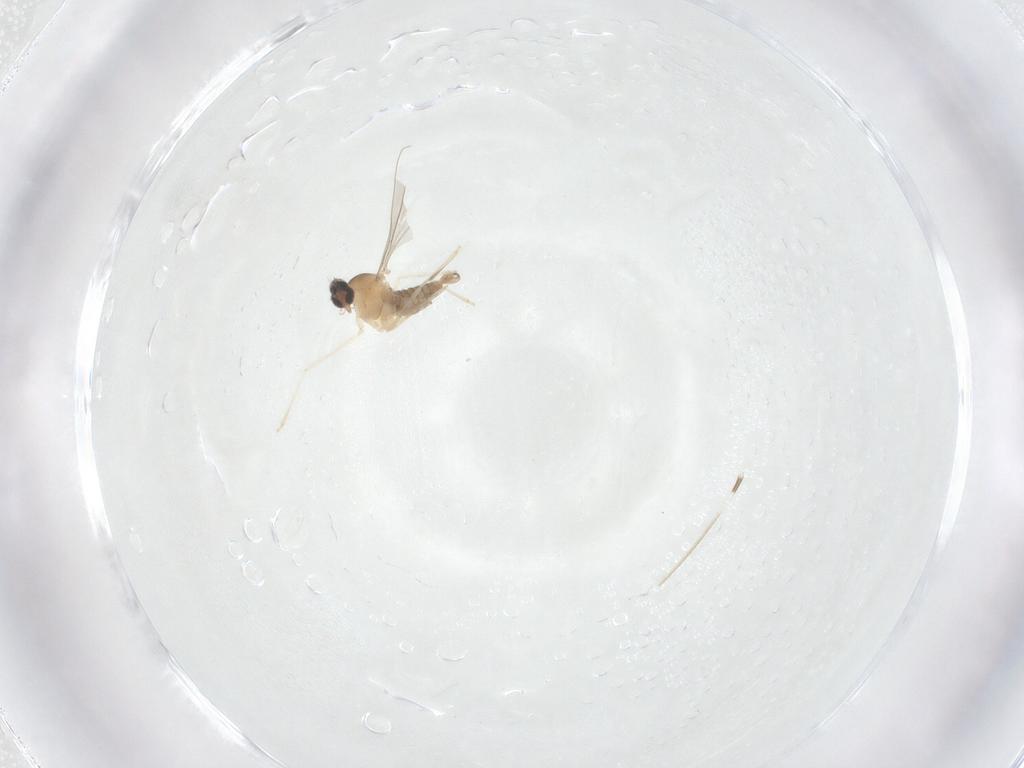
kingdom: Animalia
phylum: Arthropoda
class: Insecta
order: Diptera
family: Cecidomyiidae
